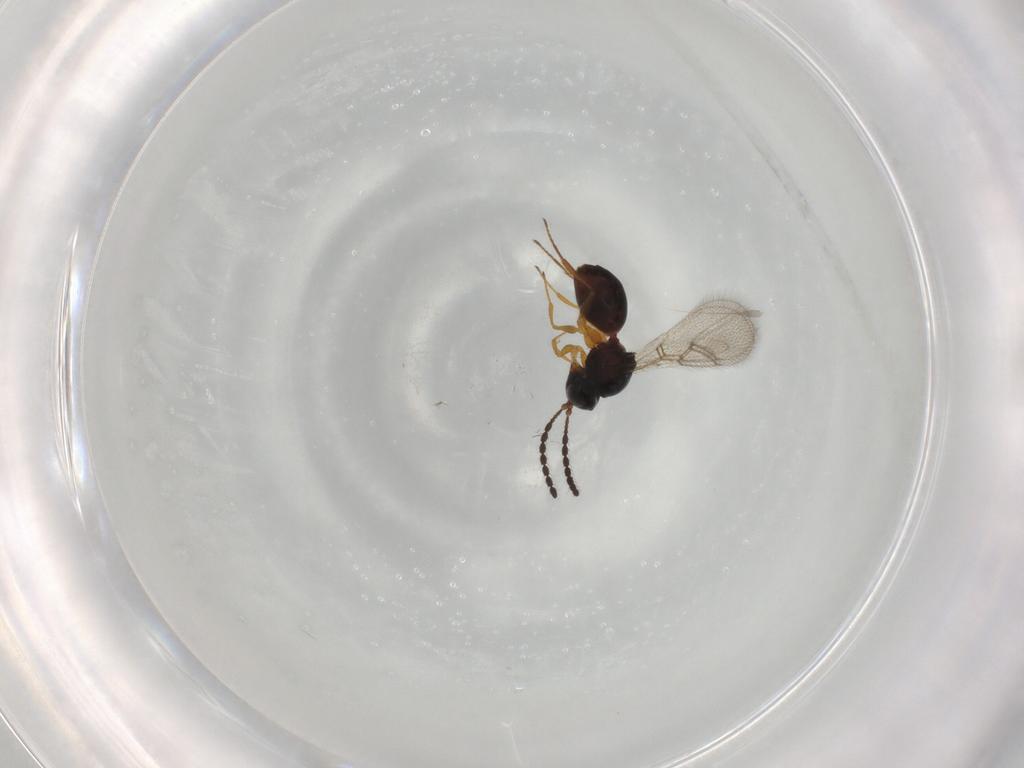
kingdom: Animalia
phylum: Arthropoda
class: Insecta
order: Hymenoptera
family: Figitidae
